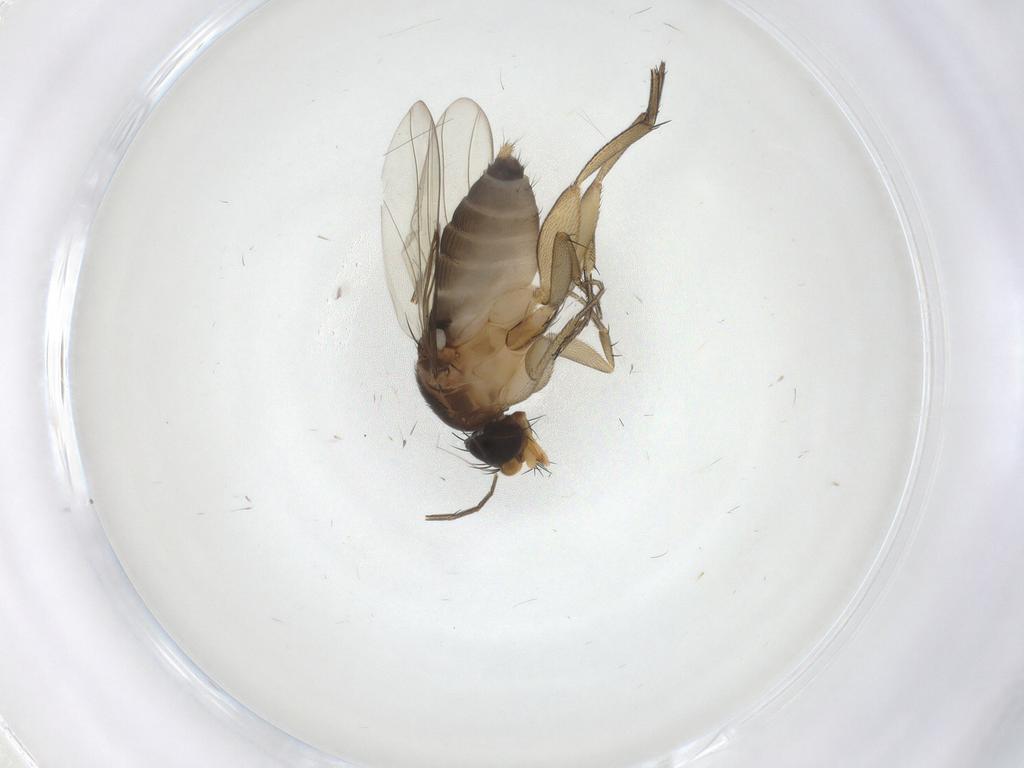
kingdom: Animalia
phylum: Arthropoda
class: Insecta
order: Diptera
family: Phoridae
